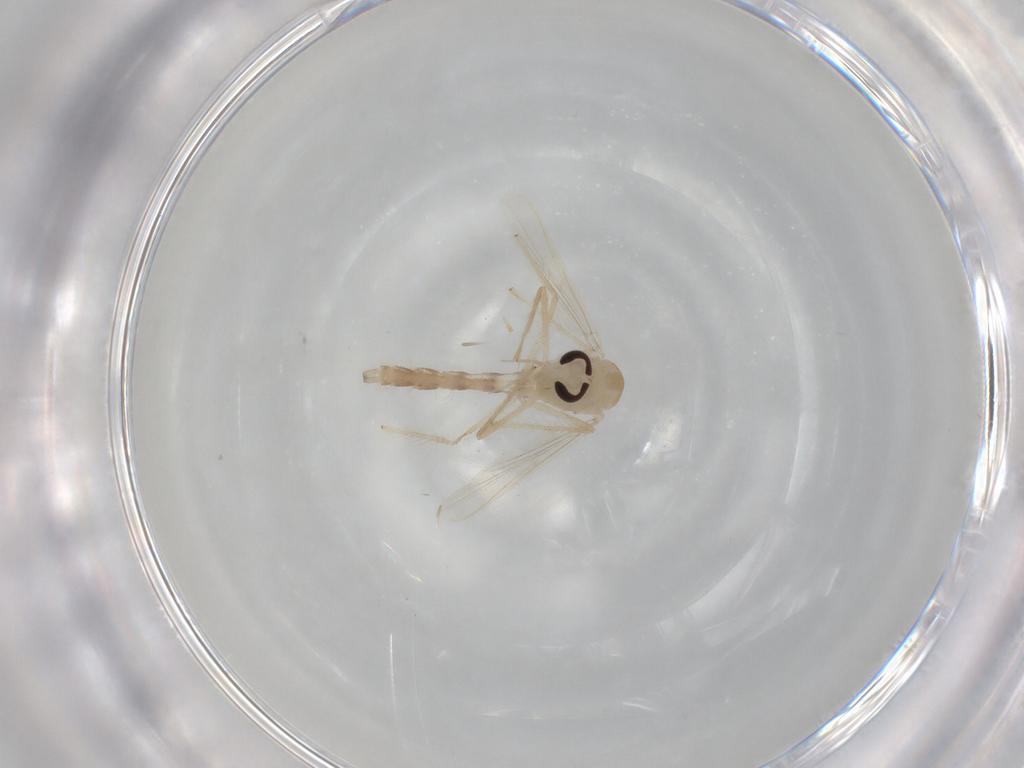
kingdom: Animalia
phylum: Arthropoda
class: Insecta
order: Diptera
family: Chironomidae
